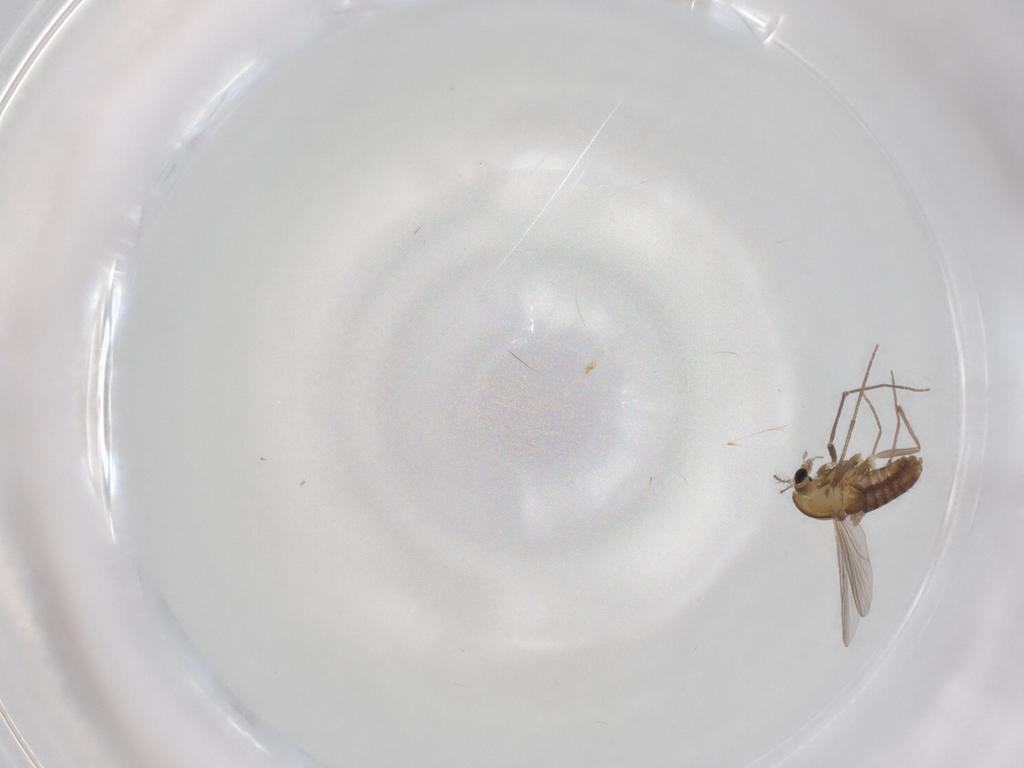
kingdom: Animalia
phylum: Arthropoda
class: Insecta
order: Diptera
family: Chironomidae
